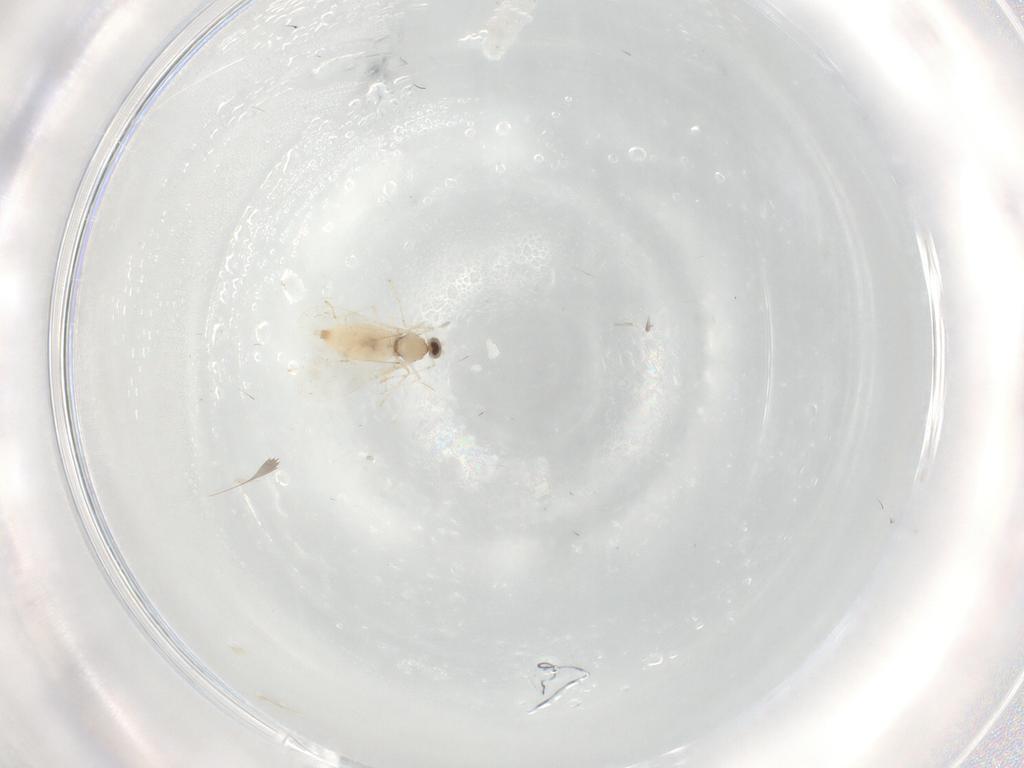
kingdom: Animalia
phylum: Arthropoda
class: Insecta
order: Diptera
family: Cecidomyiidae
